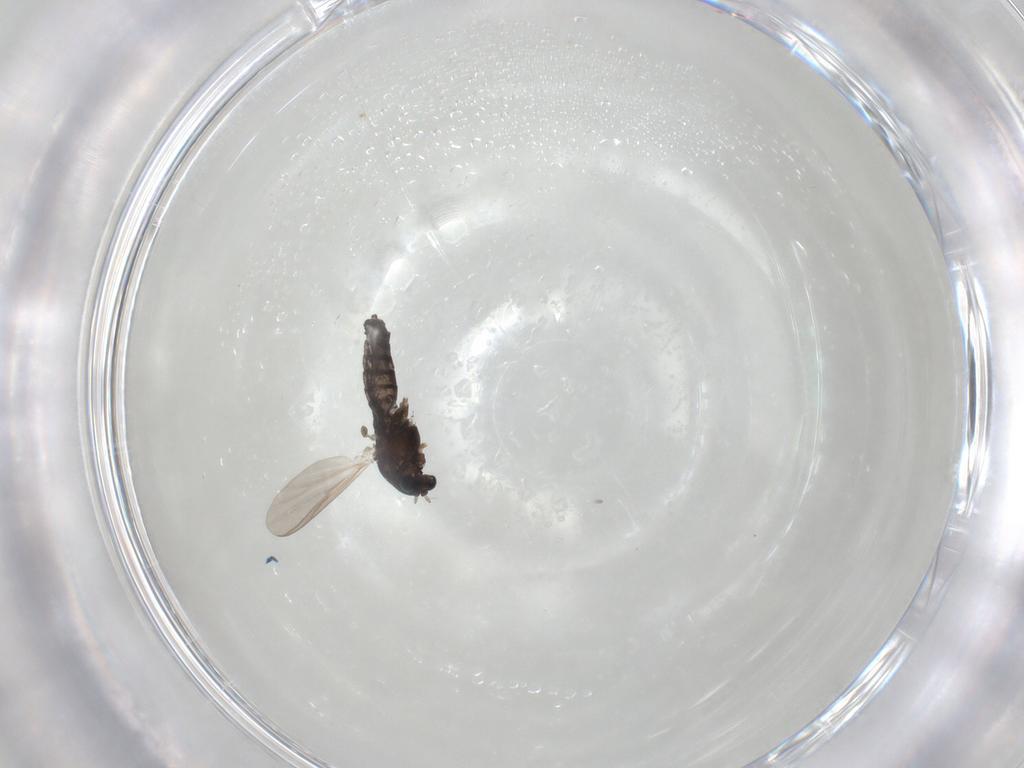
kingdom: Animalia
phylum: Arthropoda
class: Insecta
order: Diptera
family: Chironomidae
